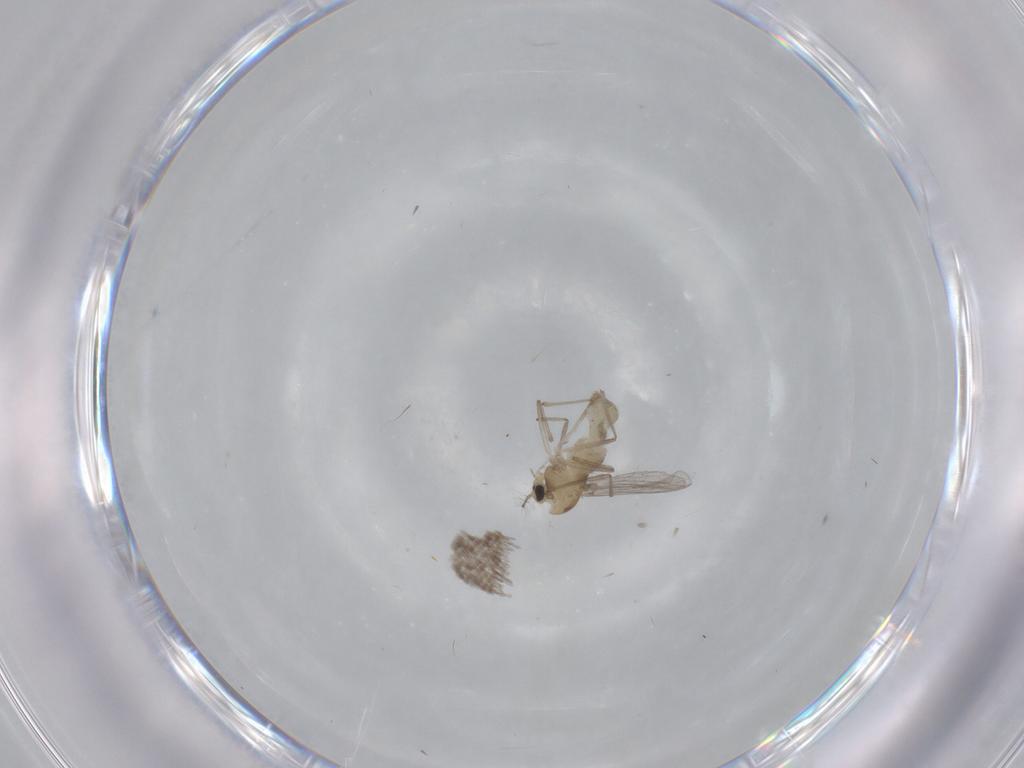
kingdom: Animalia
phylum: Arthropoda
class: Insecta
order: Diptera
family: Chironomidae
